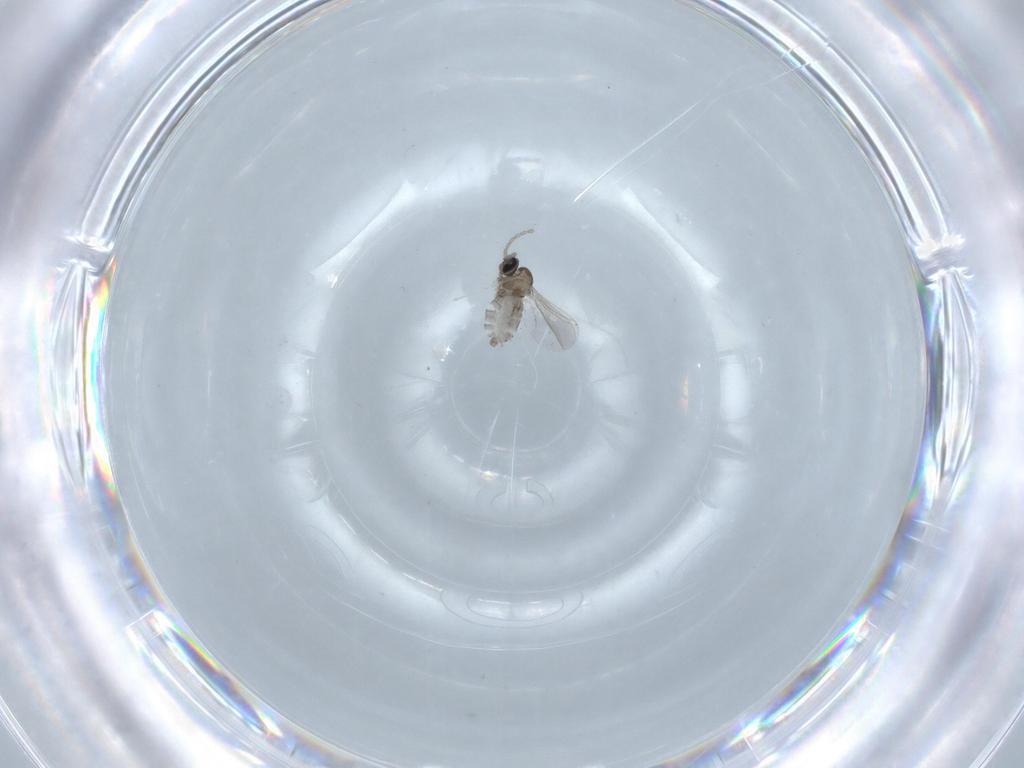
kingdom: Animalia
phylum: Arthropoda
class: Insecta
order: Diptera
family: Cecidomyiidae
